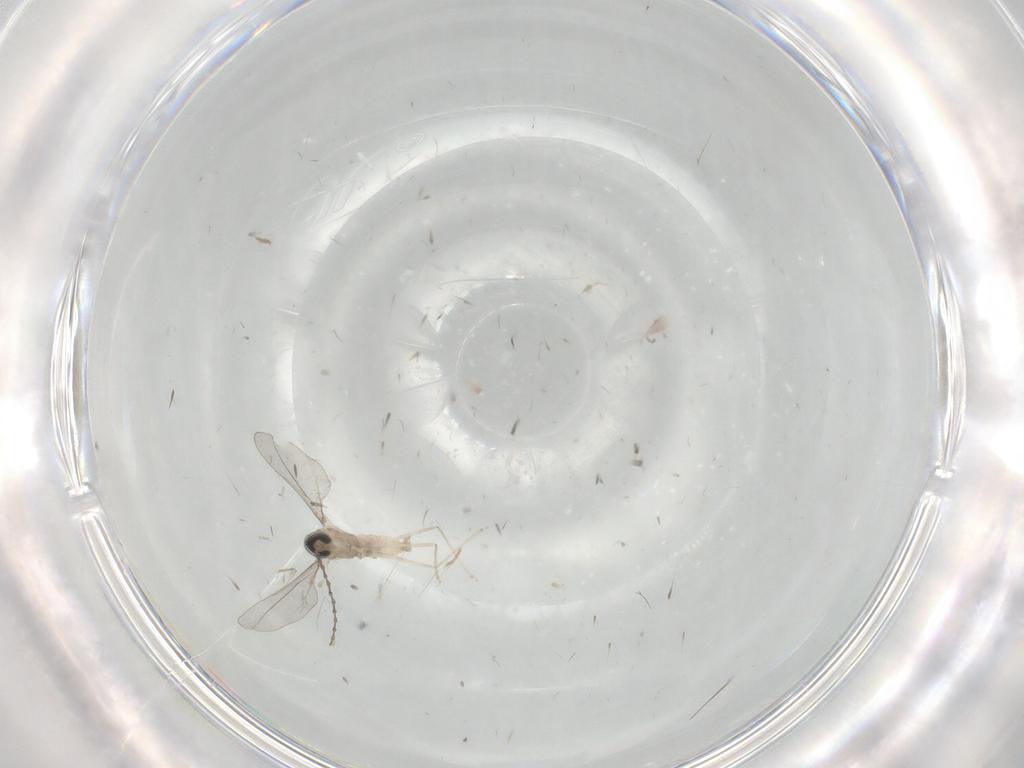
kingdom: Animalia
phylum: Arthropoda
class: Insecta
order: Diptera
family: Cecidomyiidae
